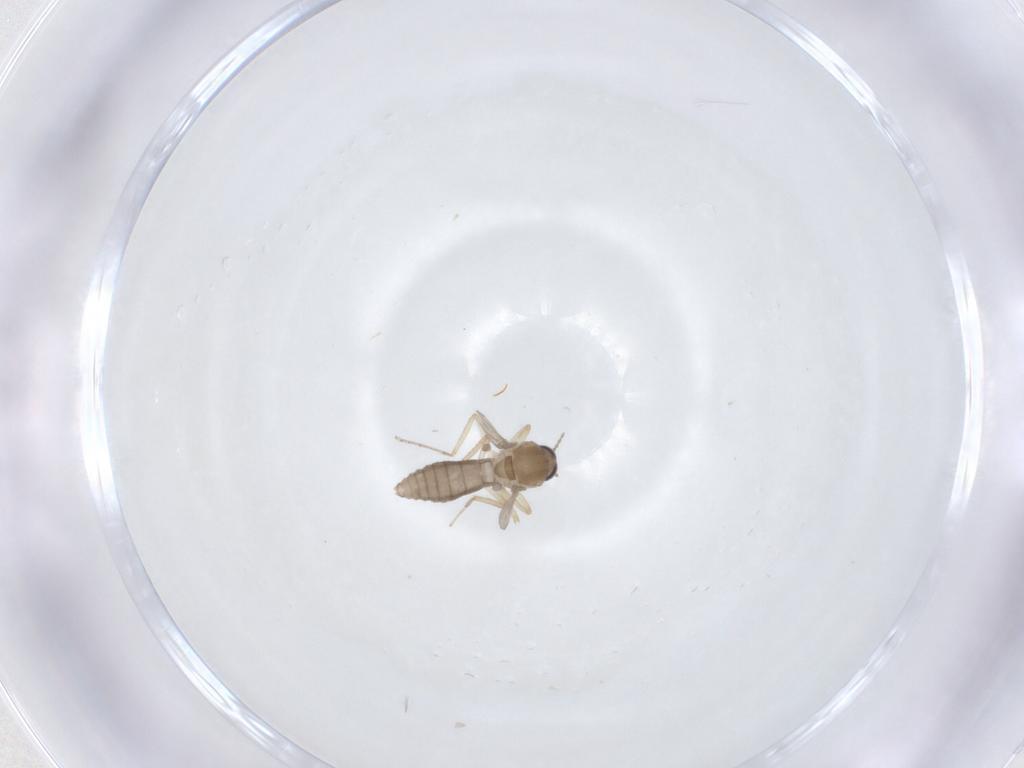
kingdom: Animalia
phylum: Arthropoda
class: Insecta
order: Diptera
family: Ceratopogonidae
